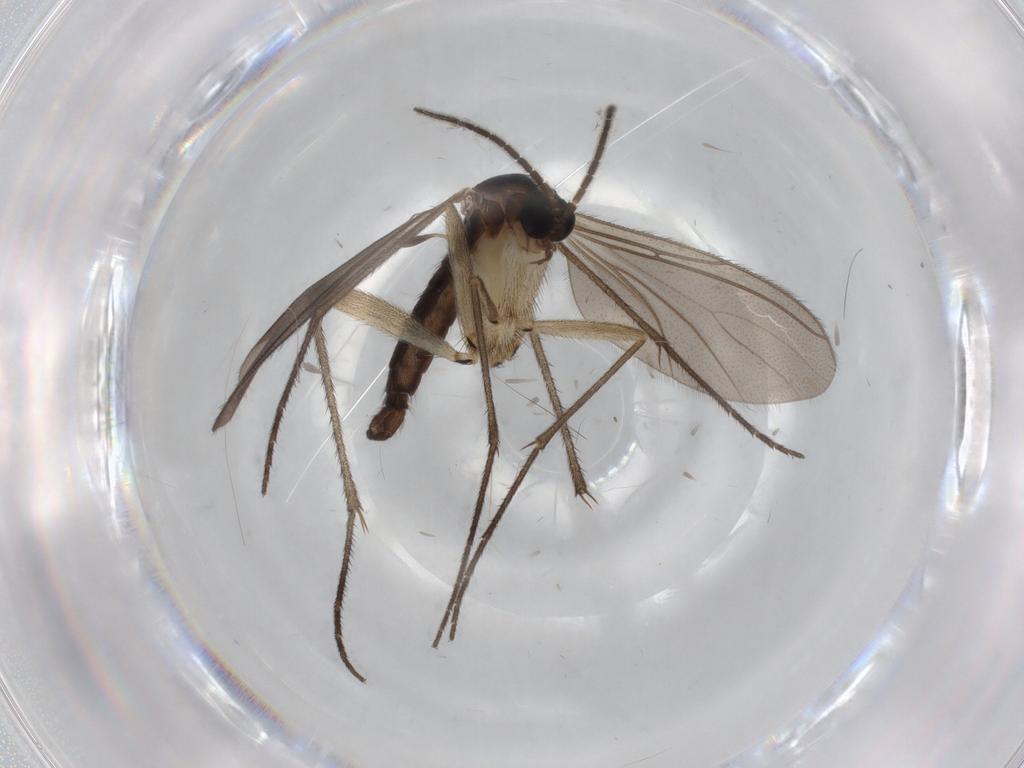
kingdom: Animalia
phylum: Arthropoda
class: Insecta
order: Diptera
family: Sciaridae
